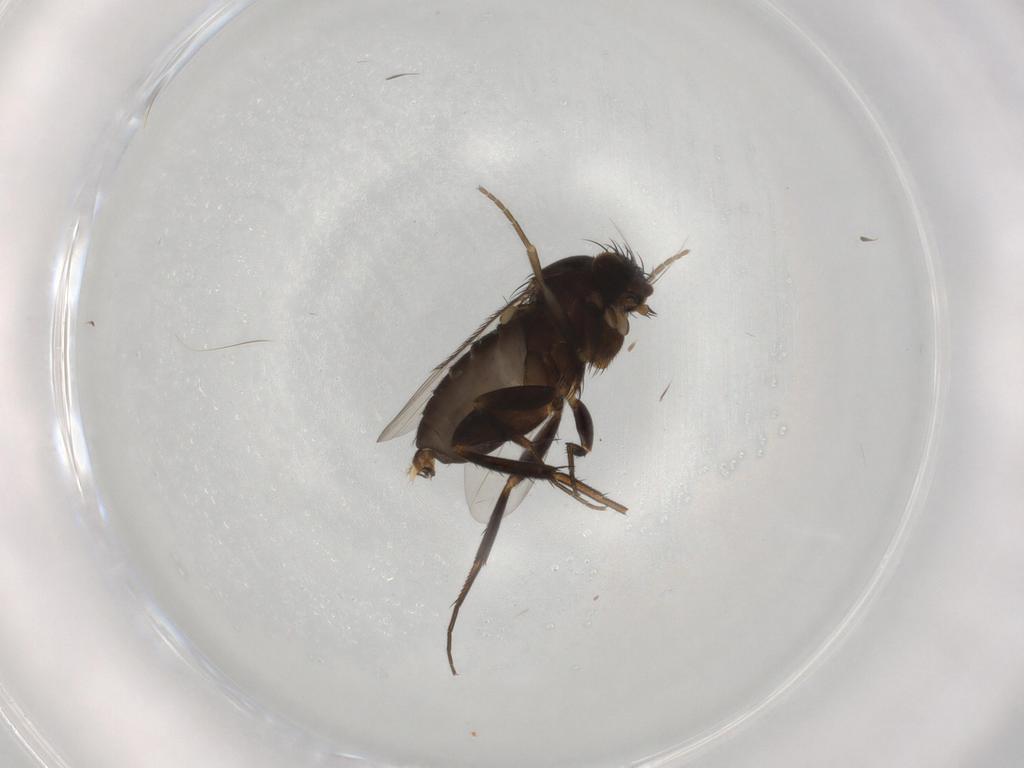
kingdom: Animalia
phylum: Arthropoda
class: Insecta
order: Diptera
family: Phoridae
